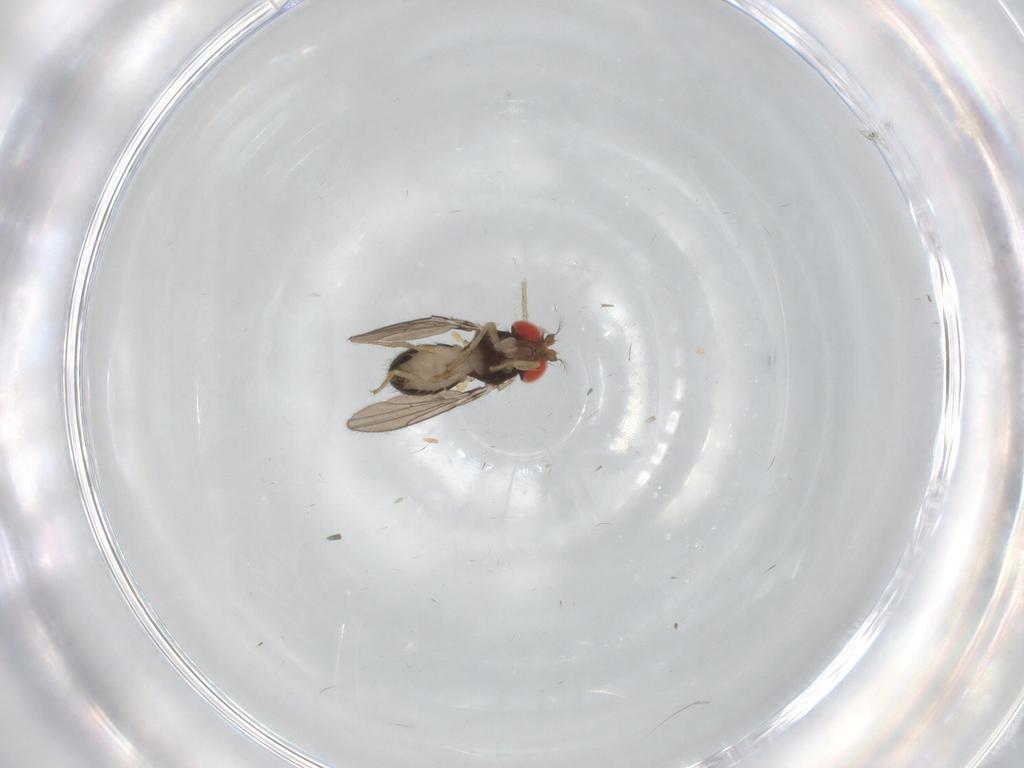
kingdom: Animalia
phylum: Arthropoda
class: Insecta
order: Diptera
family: Drosophilidae
